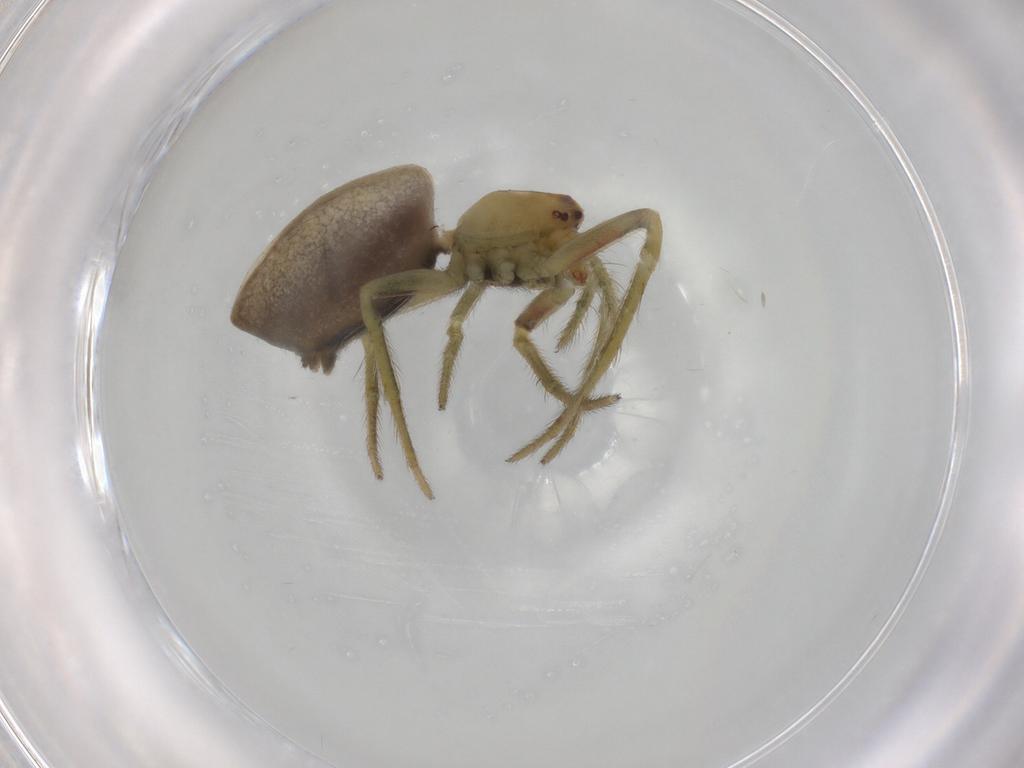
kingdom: Animalia
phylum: Arthropoda
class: Arachnida
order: Araneae
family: Araneidae
